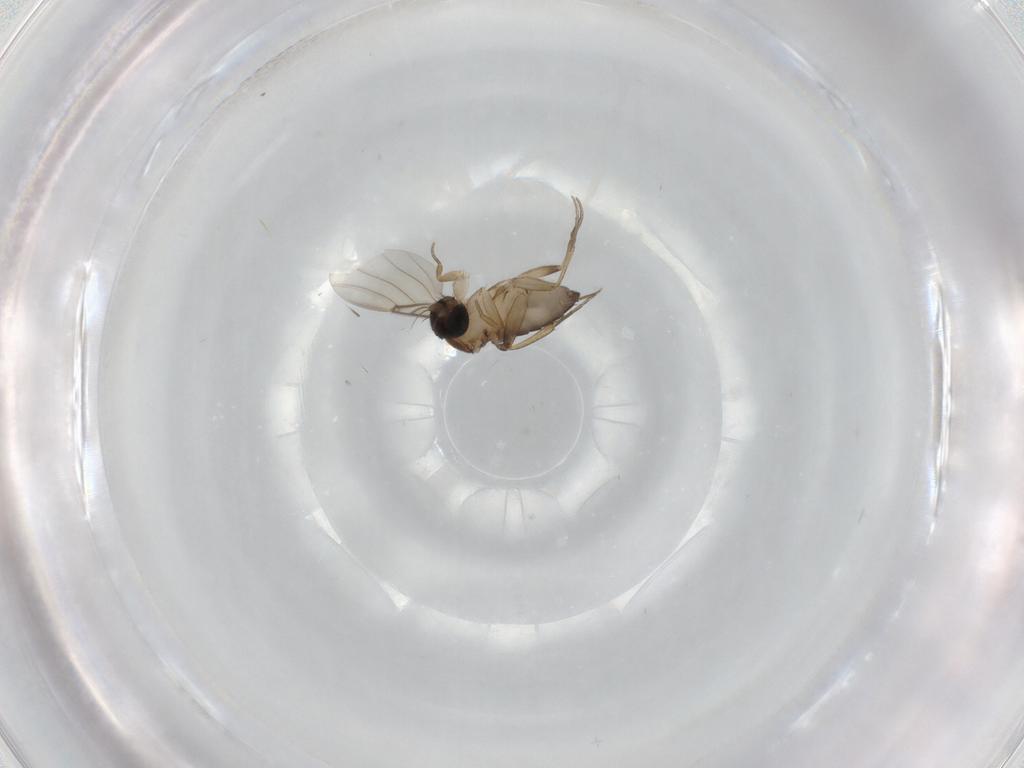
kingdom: Animalia
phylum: Arthropoda
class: Insecta
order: Diptera
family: Phoridae
